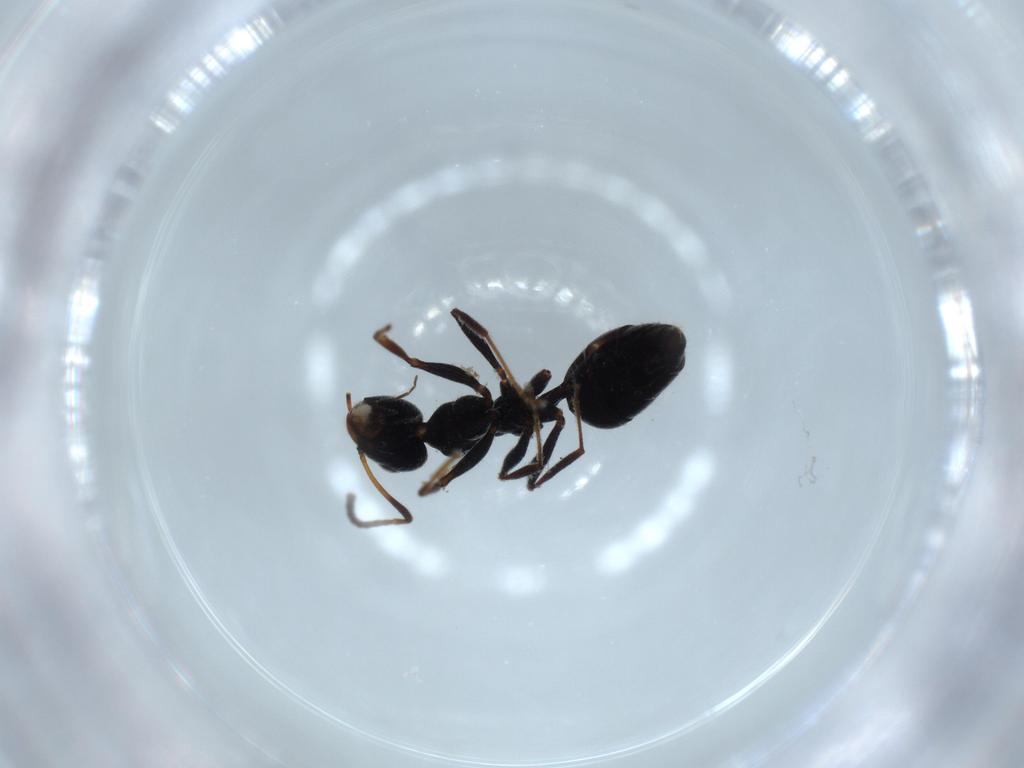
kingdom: Animalia
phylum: Arthropoda
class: Insecta
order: Hymenoptera
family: Formicidae
